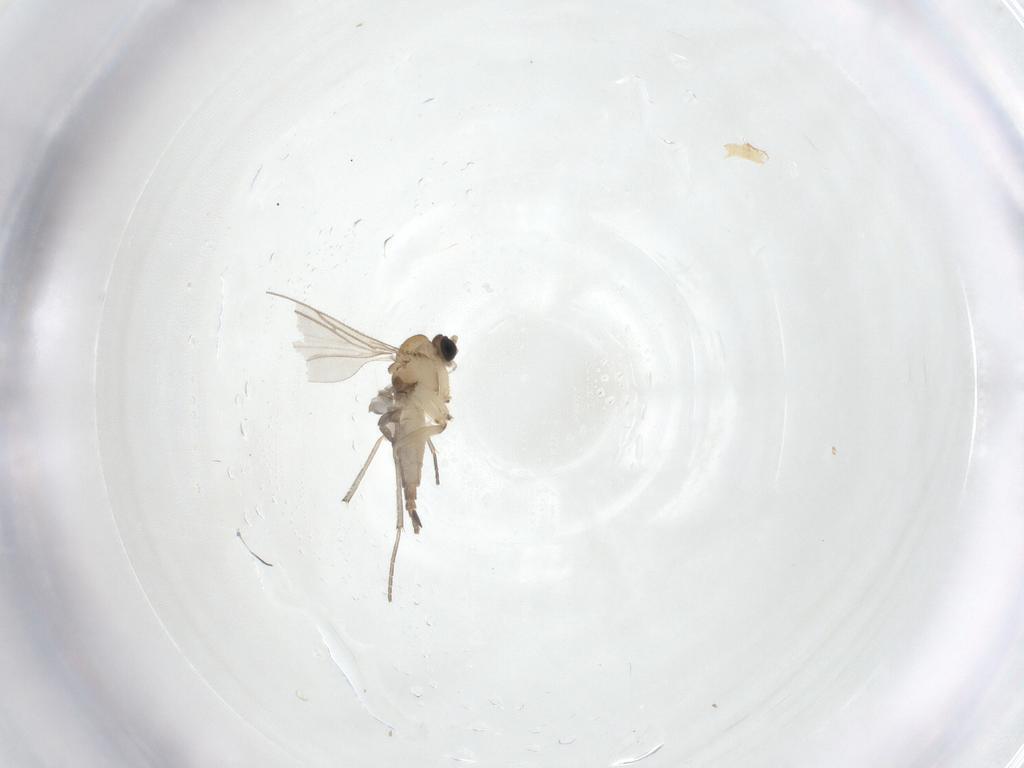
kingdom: Animalia
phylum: Arthropoda
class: Insecta
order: Diptera
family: Sciaridae
